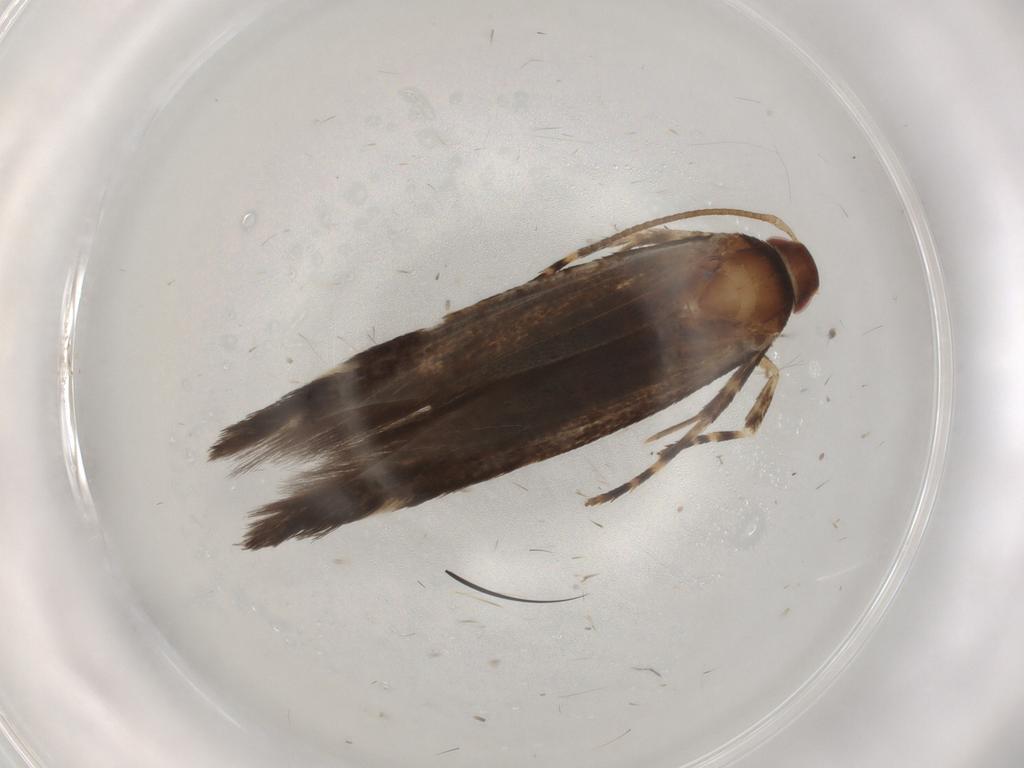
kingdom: Animalia
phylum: Arthropoda
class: Insecta
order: Lepidoptera
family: Cosmopterigidae
